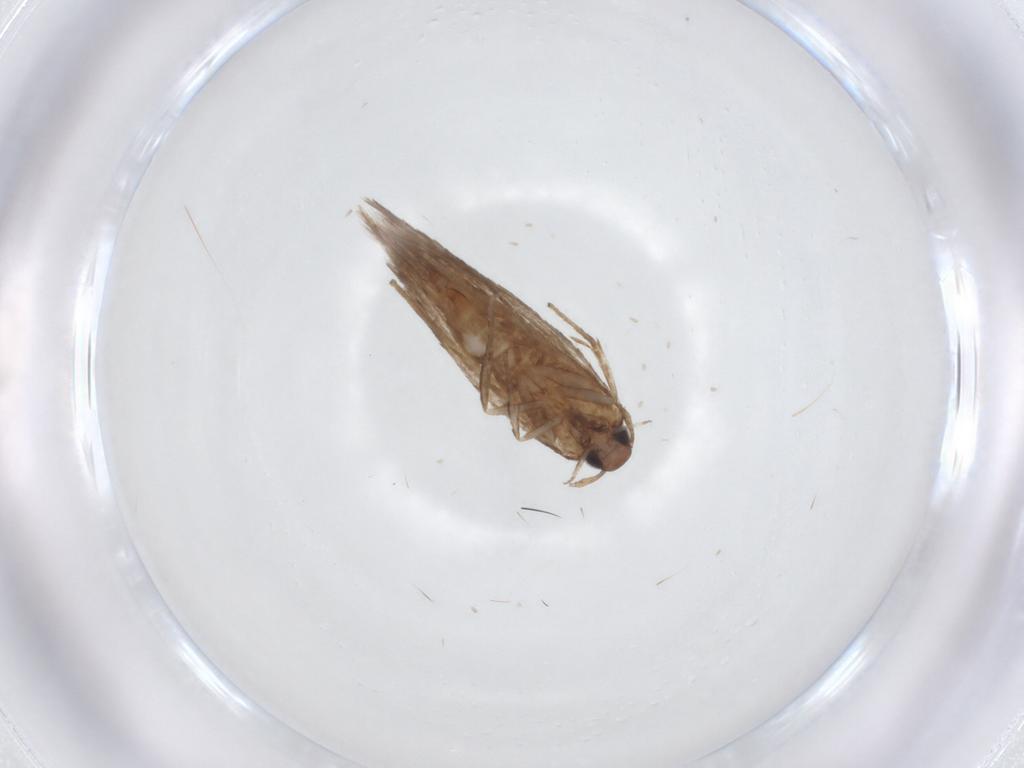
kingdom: Animalia
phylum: Arthropoda
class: Insecta
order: Lepidoptera
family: Gelechiidae
